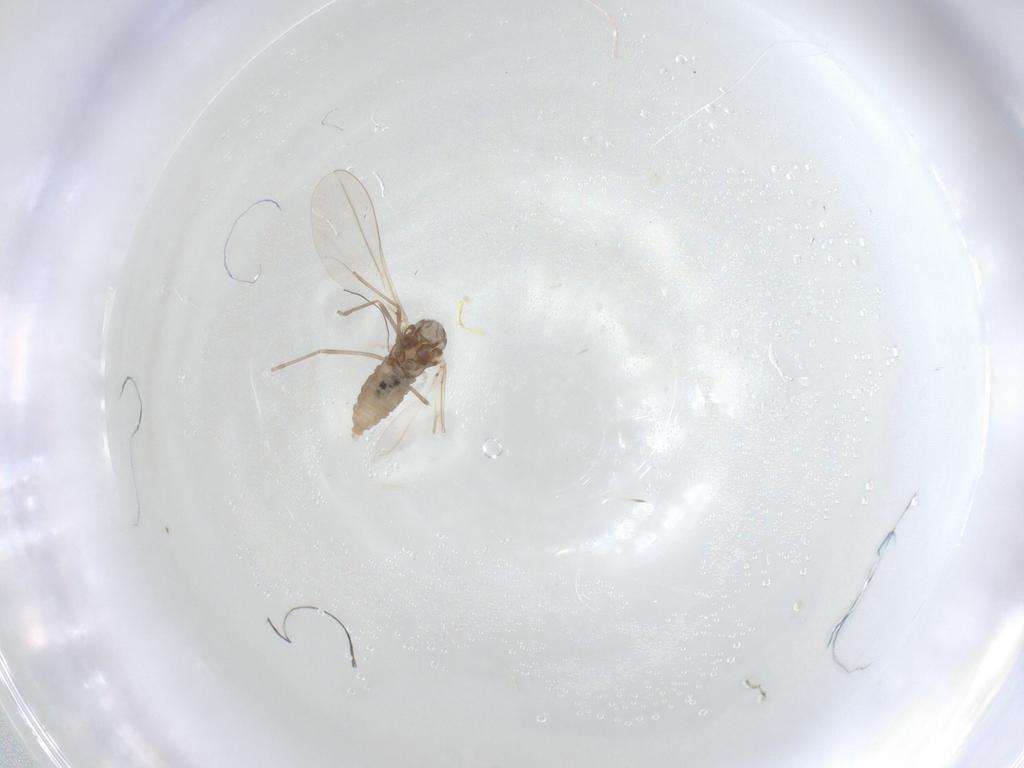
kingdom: Animalia
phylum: Arthropoda
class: Insecta
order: Diptera
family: Cecidomyiidae
